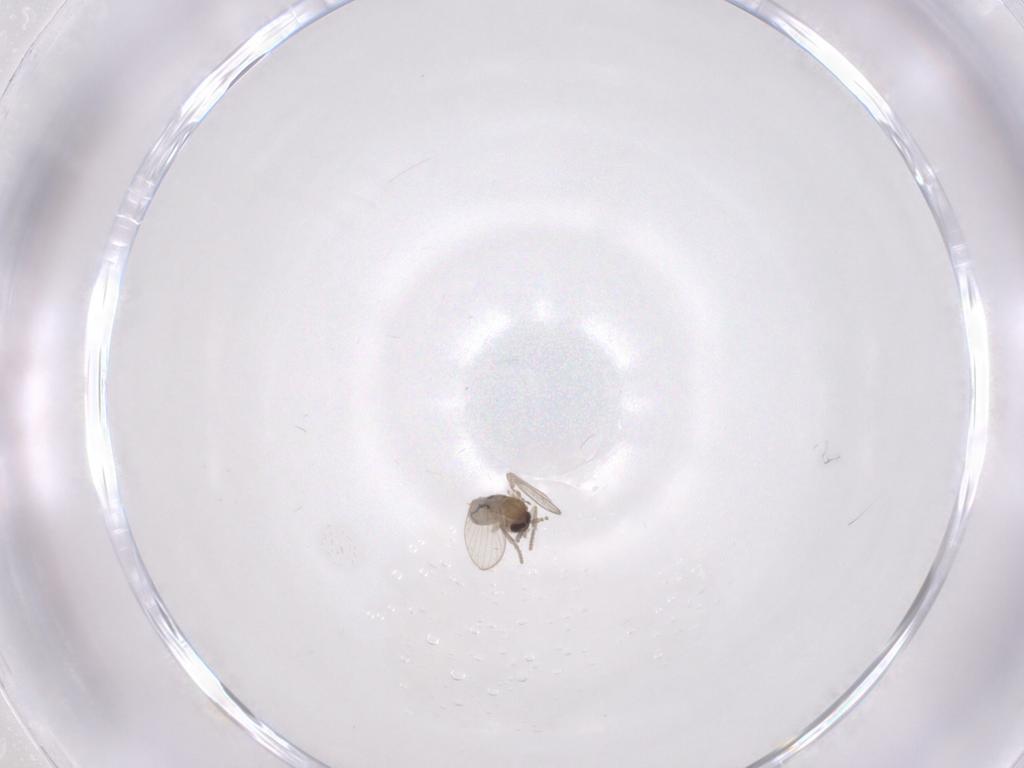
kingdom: Animalia
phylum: Arthropoda
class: Insecta
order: Diptera
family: Psychodidae
